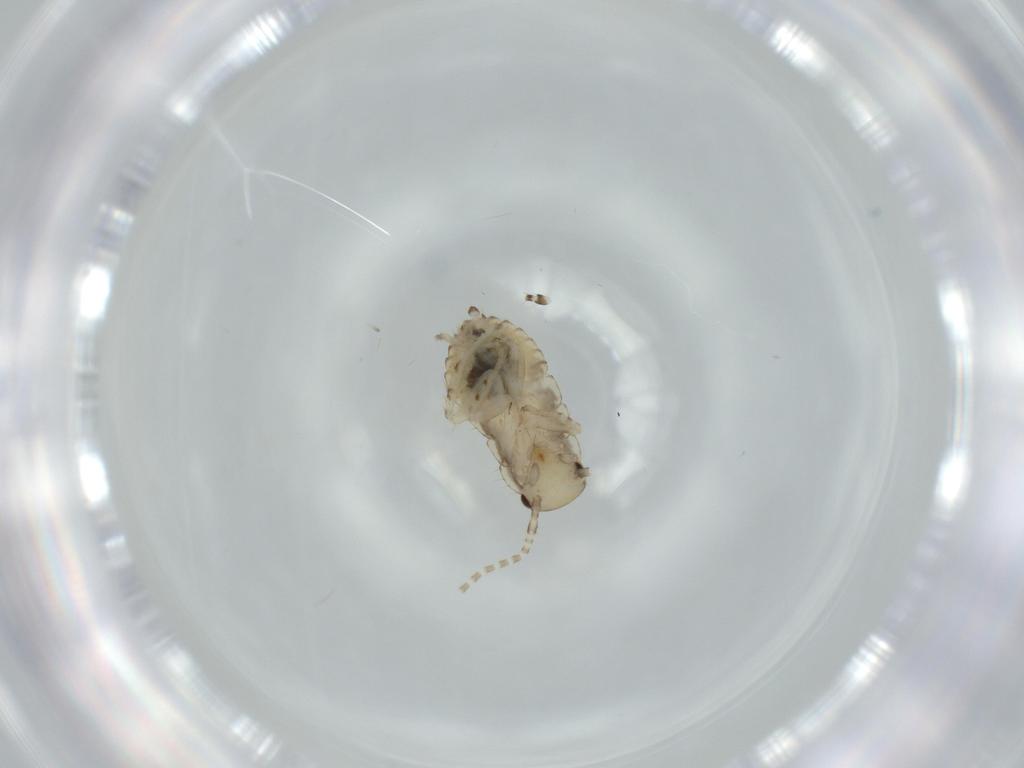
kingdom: Animalia
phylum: Arthropoda
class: Insecta
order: Blattodea
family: Ectobiidae
